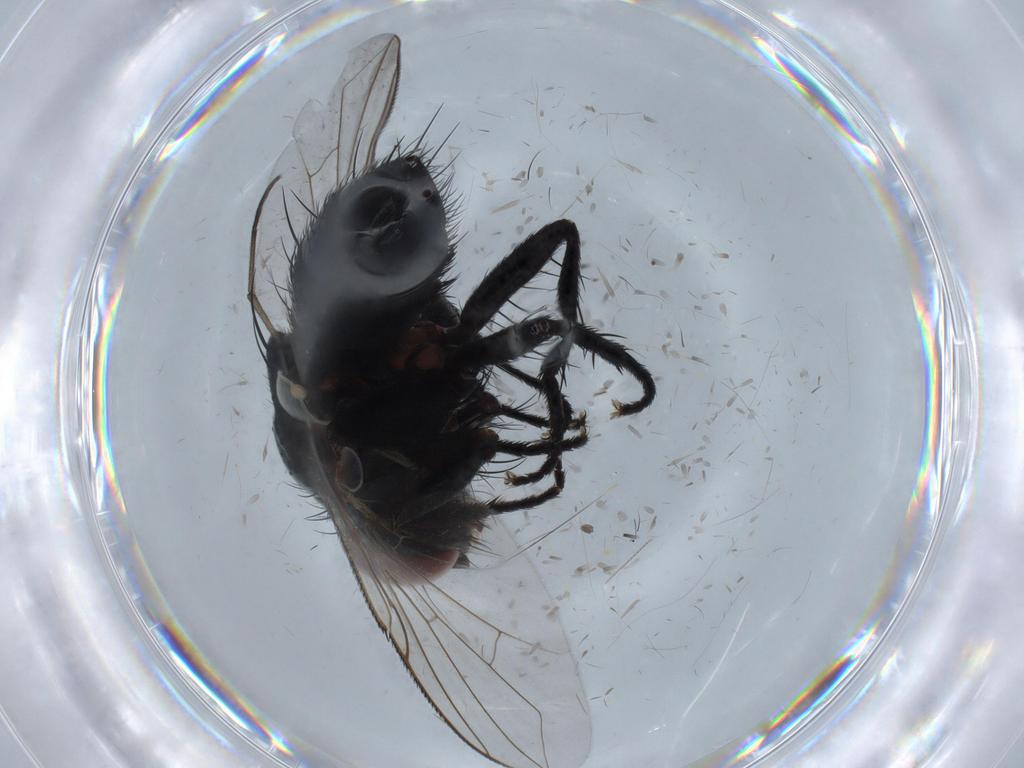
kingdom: Animalia
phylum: Arthropoda
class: Insecta
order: Diptera
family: Tachinidae
